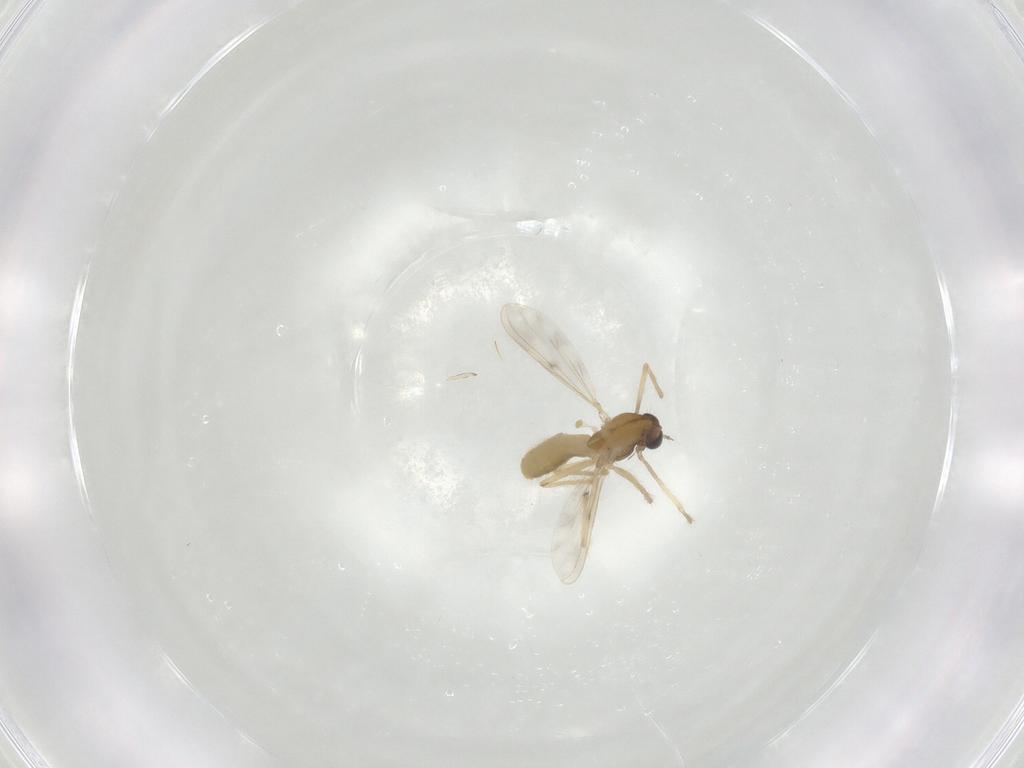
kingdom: Animalia
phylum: Arthropoda
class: Insecta
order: Diptera
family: Chironomidae
